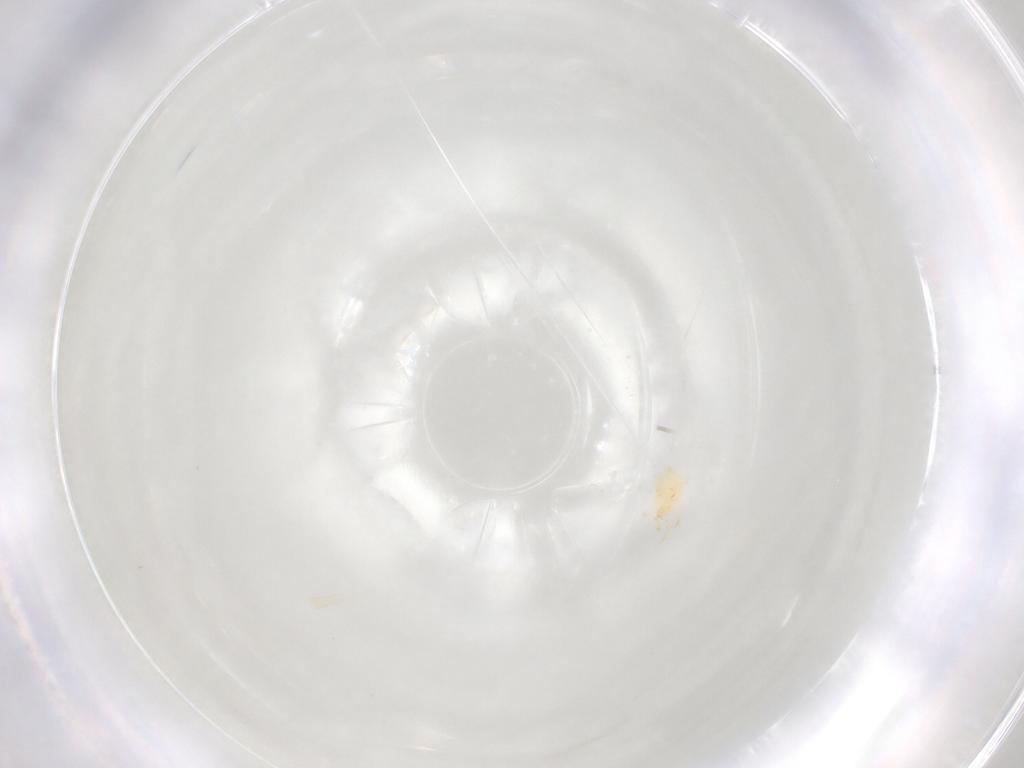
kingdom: Animalia
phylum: Arthropoda
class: Arachnida
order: Mesostigmata
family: Phytoseiidae
